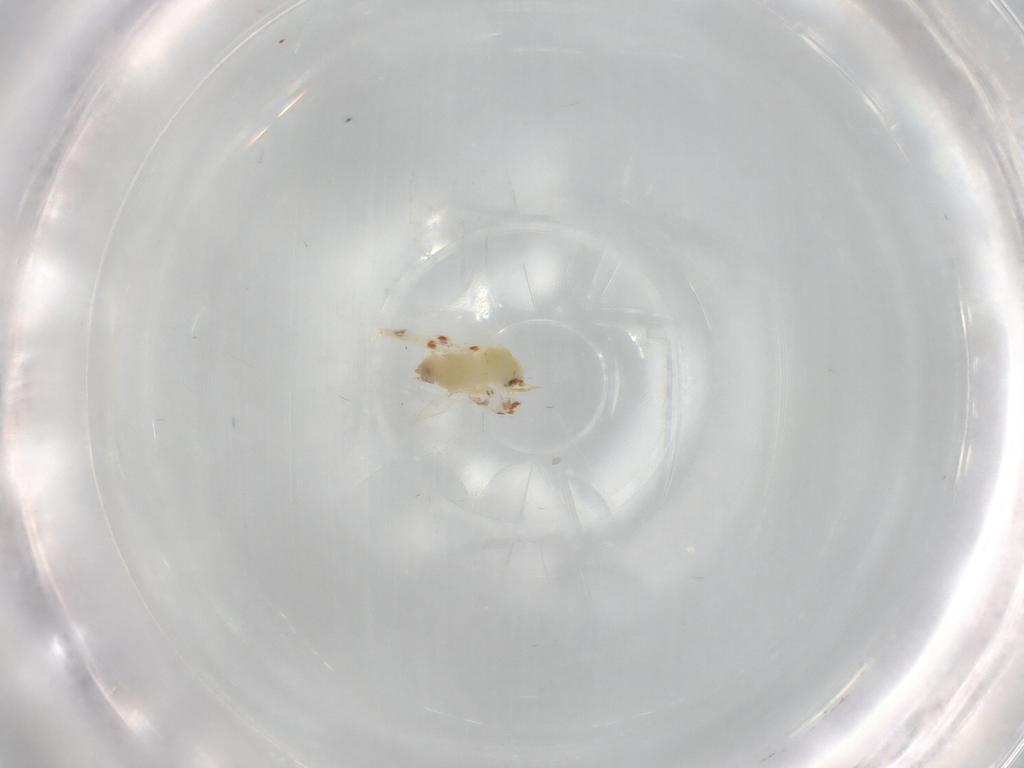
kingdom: Animalia
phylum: Arthropoda
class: Insecta
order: Hemiptera
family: Aleyrodidae
